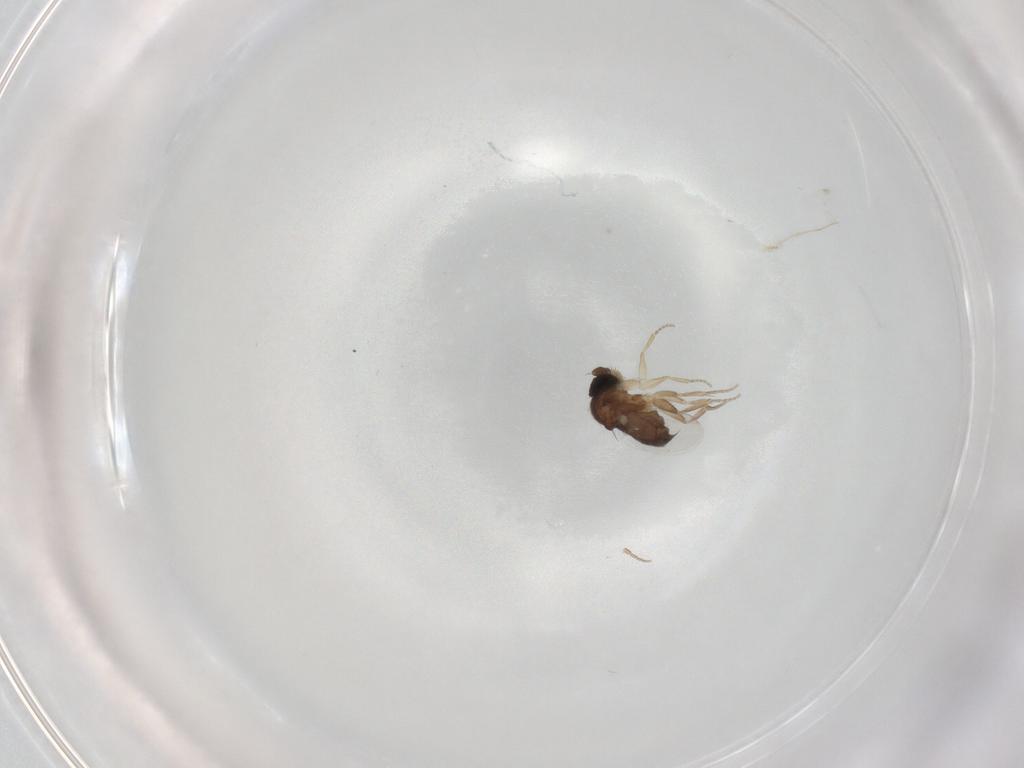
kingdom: Animalia
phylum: Arthropoda
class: Insecta
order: Diptera
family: Phoridae
